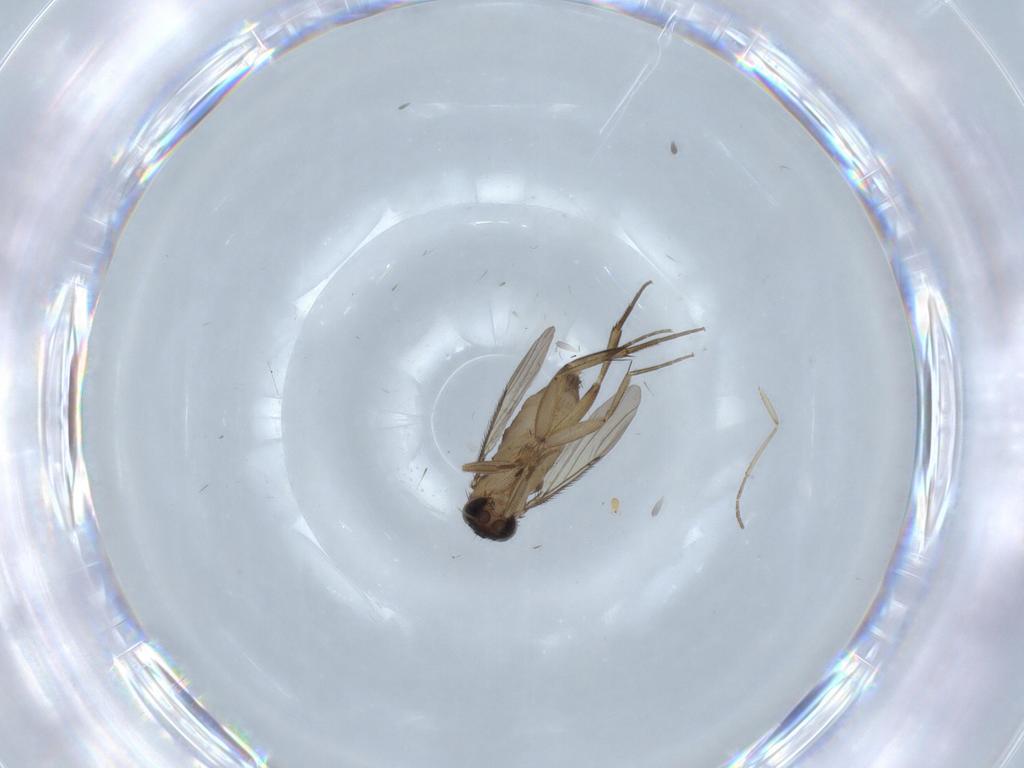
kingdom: Animalia
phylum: Arthropoda
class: Insecta
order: Diptera
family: Phoridae
